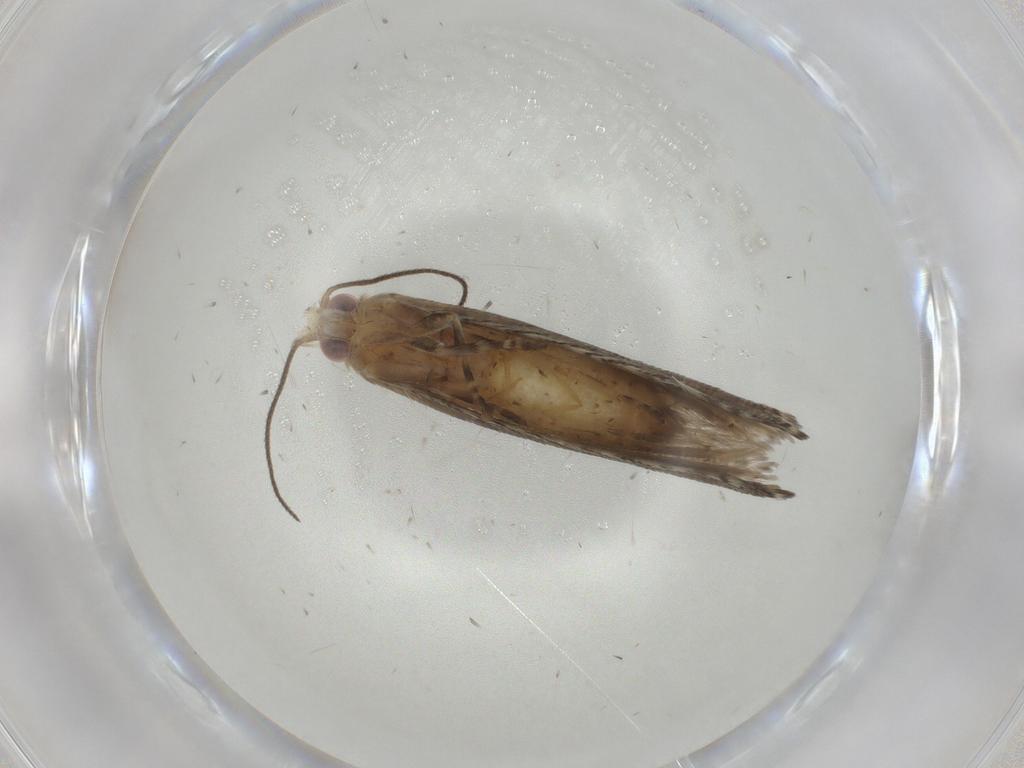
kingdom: Animalia
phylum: Arthropoda
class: Insecta
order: Lepidoptera
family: Tortricidae
